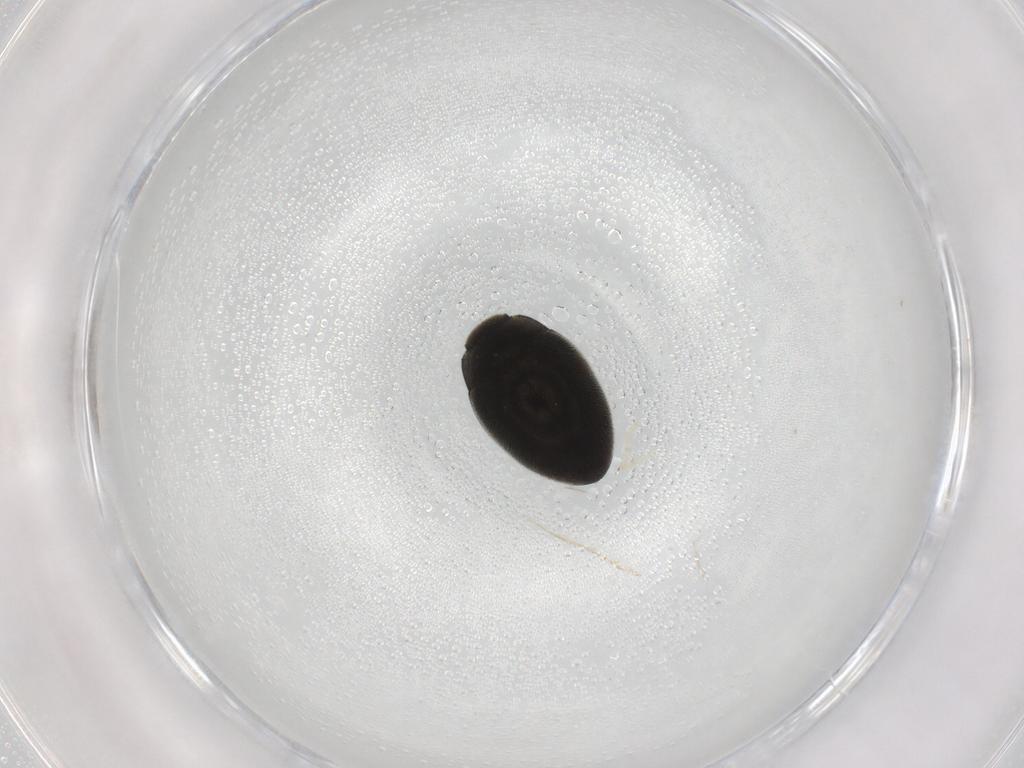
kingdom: Animalia
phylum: Arthropoda
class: Insecta
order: Coleoptera
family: Limnichidae
